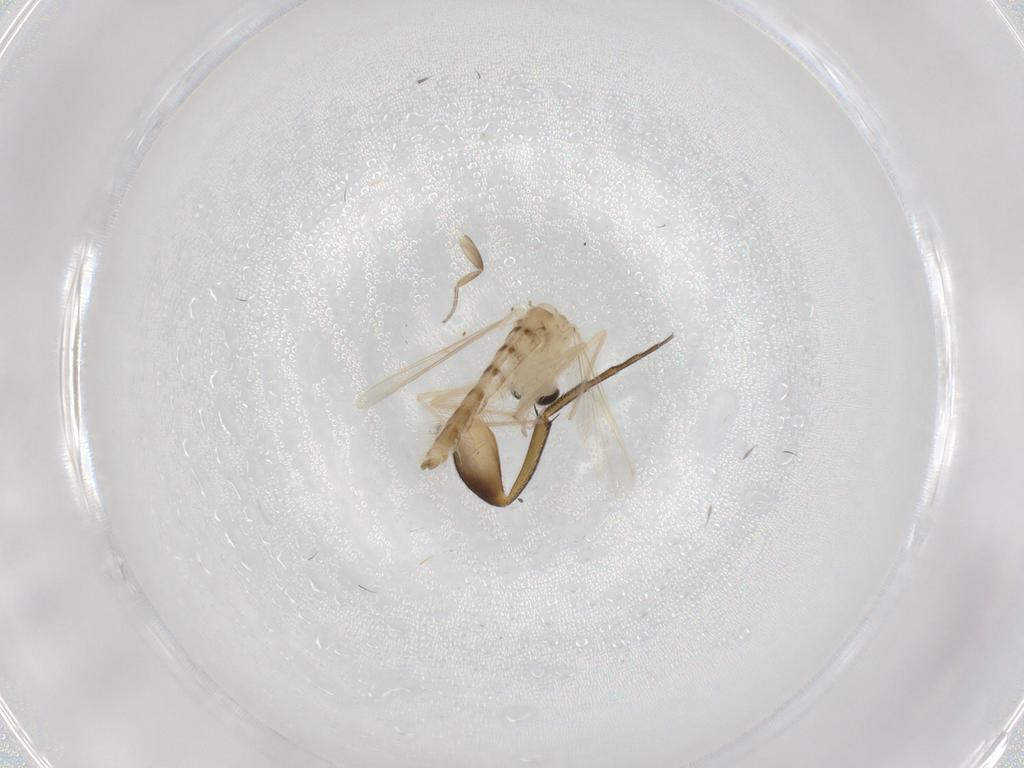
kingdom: Animalia
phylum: Arthropoda
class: Insecta
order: Diptera
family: Chironomidae
